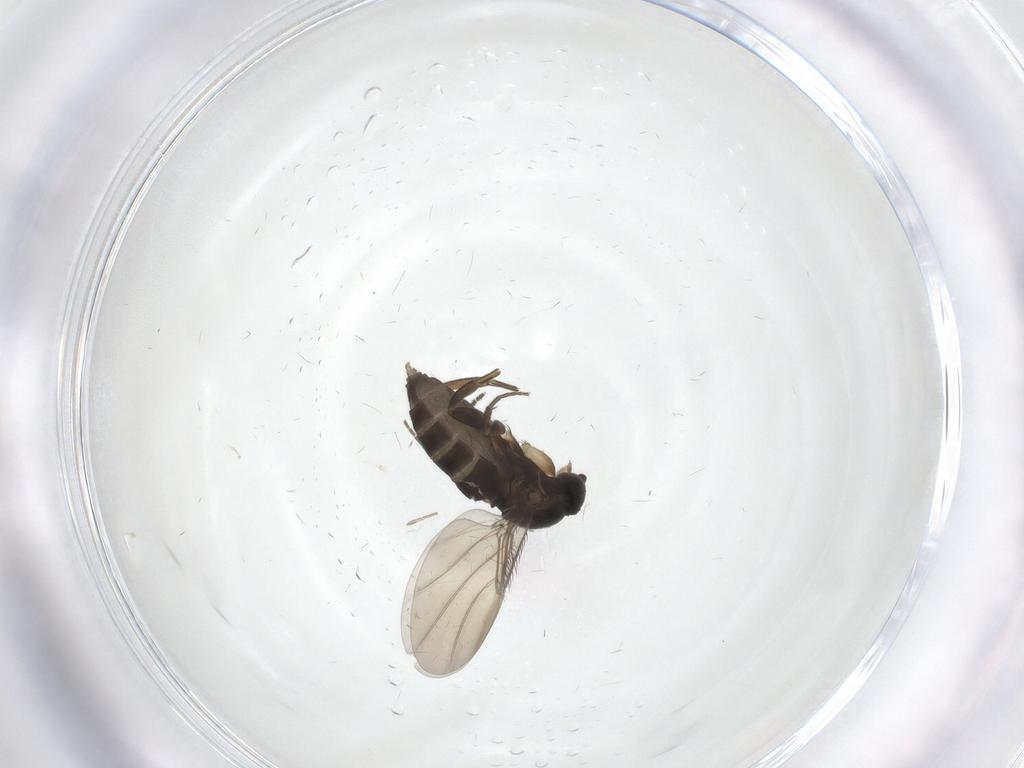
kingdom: Animalia
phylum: Arthropoda
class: Insecta
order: Diptera
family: Phoridae
